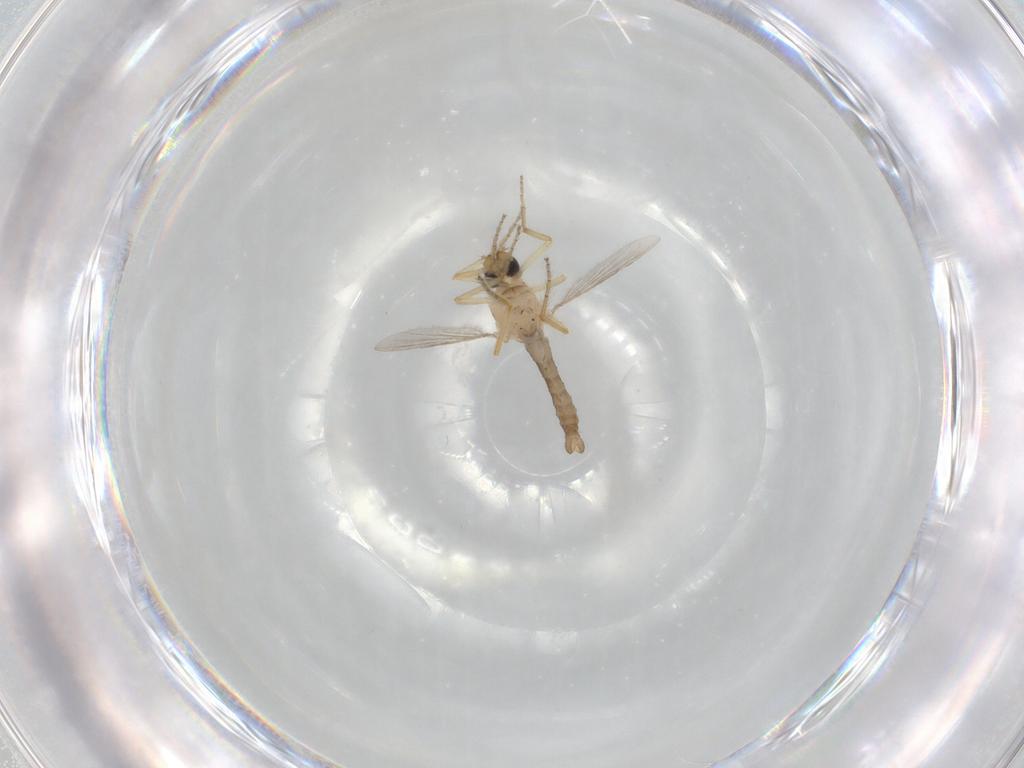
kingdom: Animalia
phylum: Arthropoda
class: Insecta
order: Diptera
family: Ceratopogonidae
